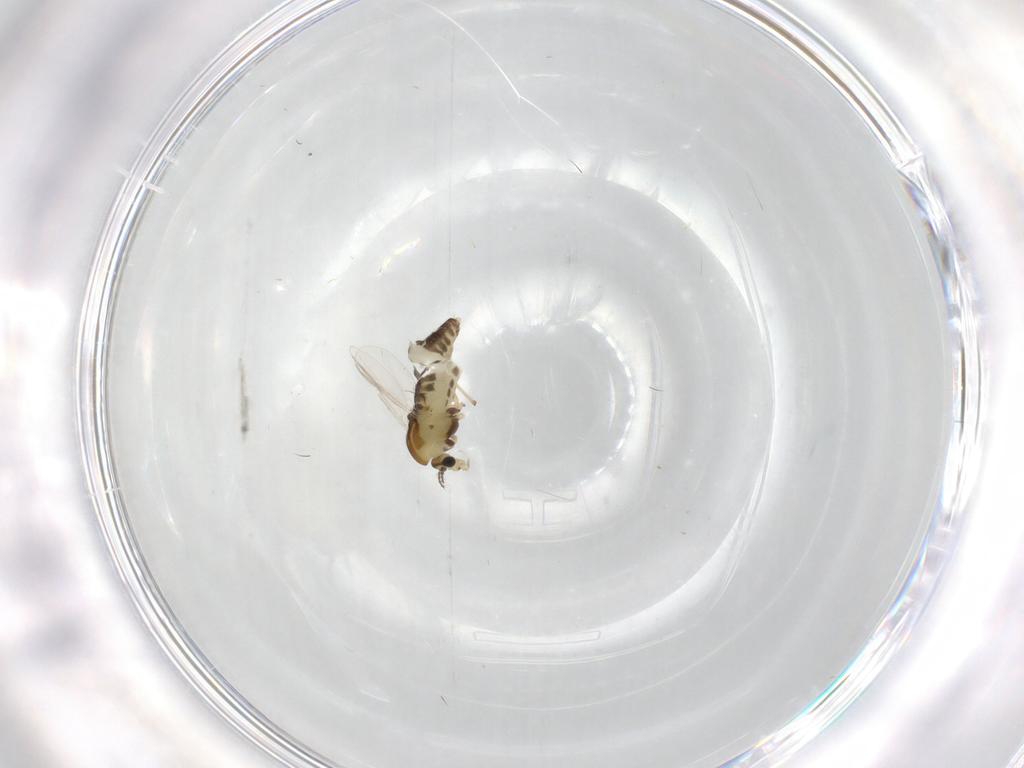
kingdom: Animalia
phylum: Arthropoda
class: Insecta
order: Diptera
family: Chironomidae
